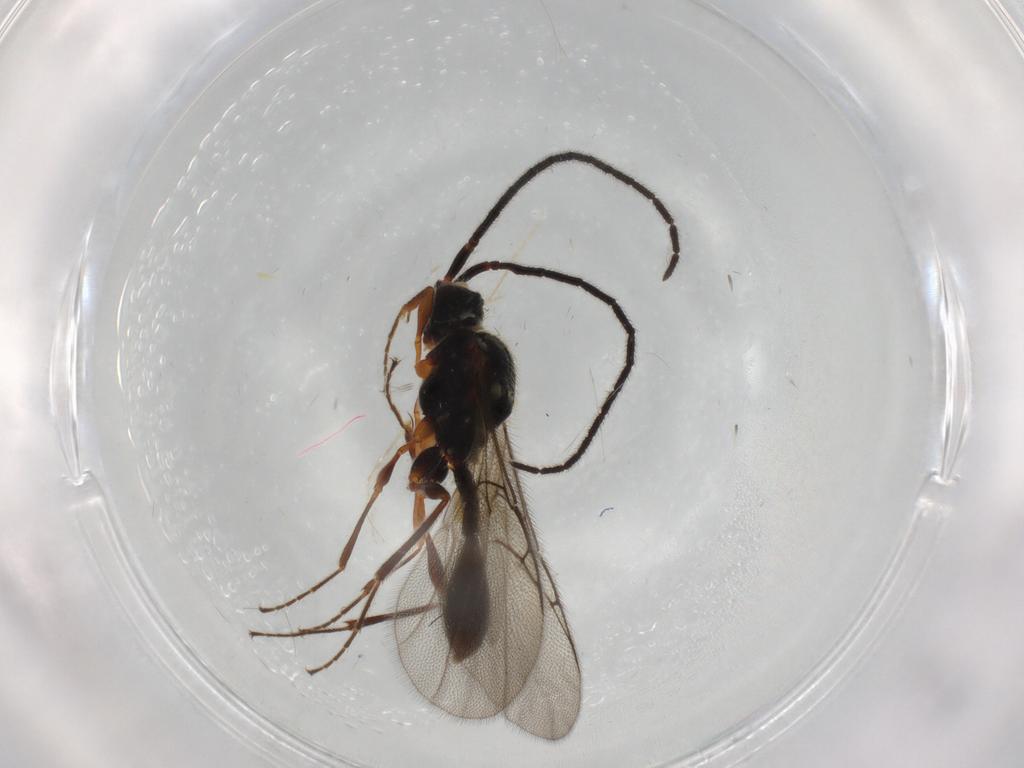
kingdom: Animalia
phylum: Arthropoda
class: Insecta
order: Hymenoptera
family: Diapriidae
